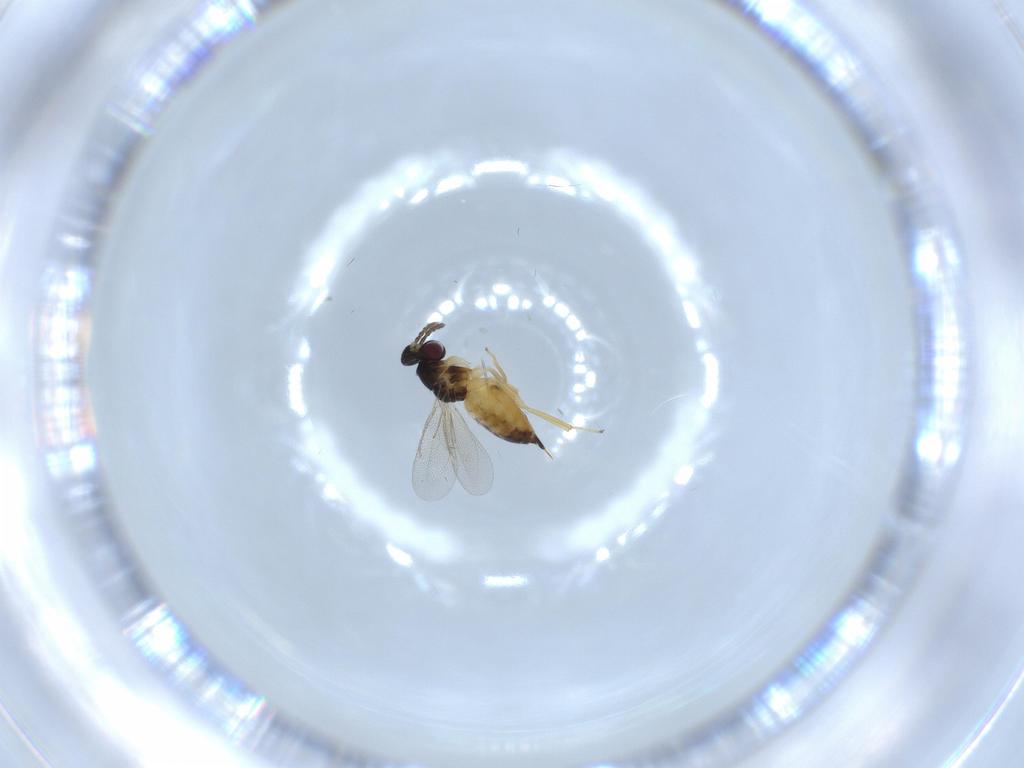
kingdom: Animalia
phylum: Arthropoda
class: Insecta
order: Hymenoptera
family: Eulophidae
